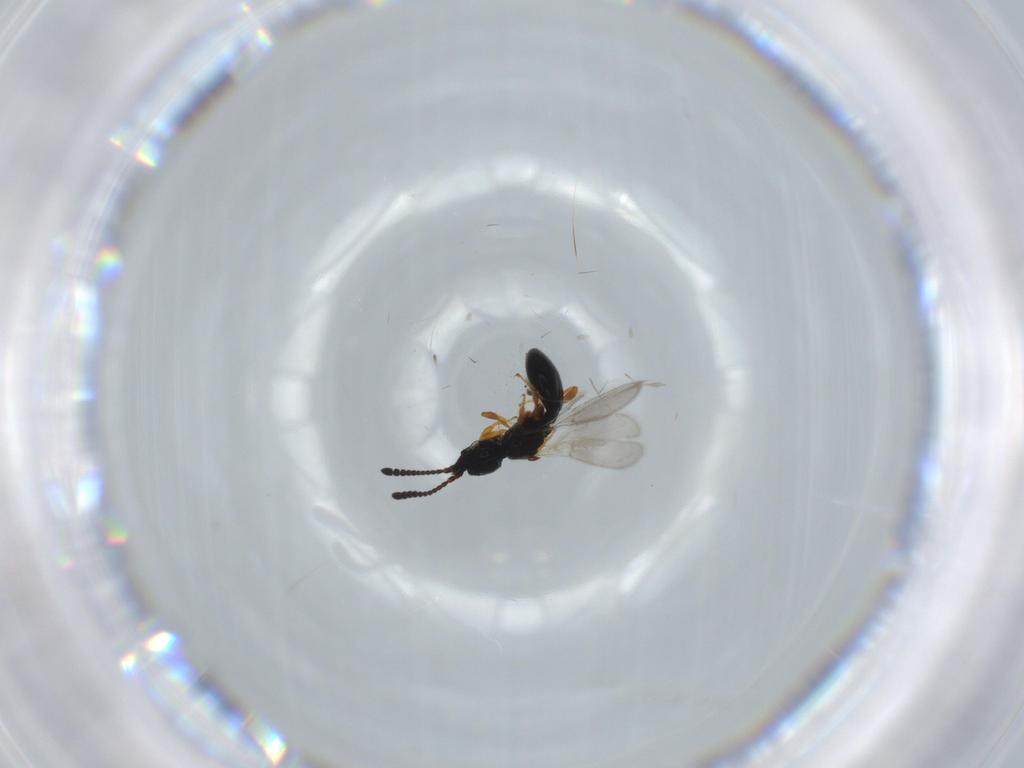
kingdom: Animalia
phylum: Arthropoda
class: Insecta
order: Hymenoptera
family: Diapriidae
